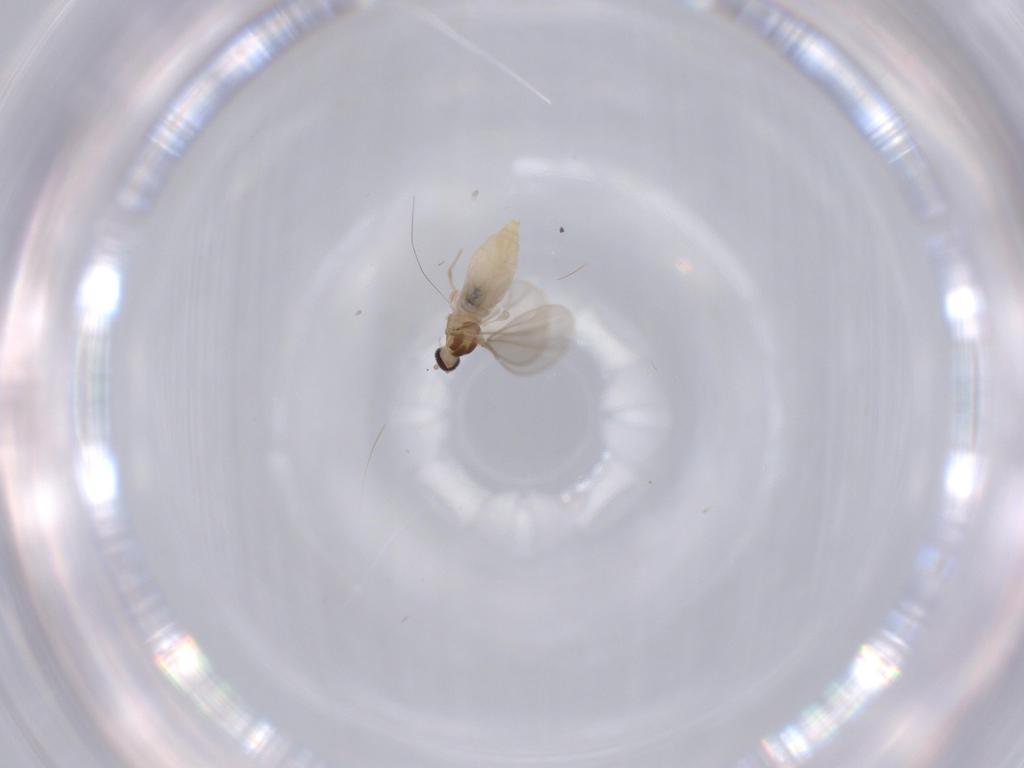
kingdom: Animalia
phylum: Arthropoda
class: Insecta
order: Diptera
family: Cecidomyiidae
